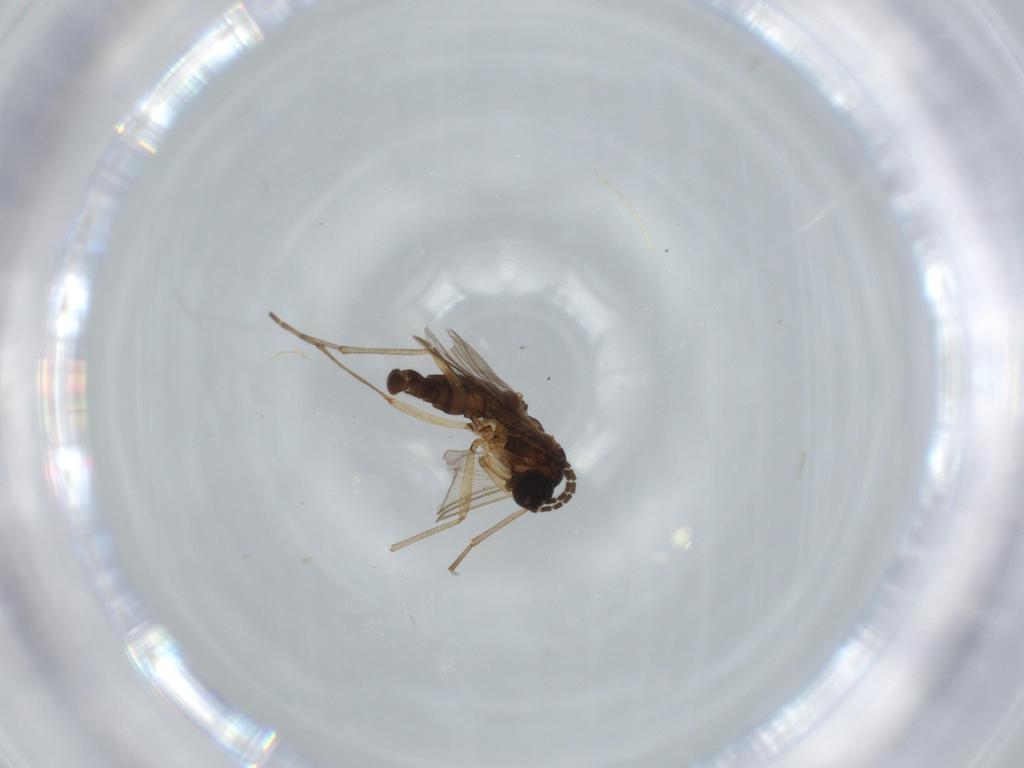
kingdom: Animalia
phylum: Arthropoda
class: Insecta
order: Diptera
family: Sciaridae
